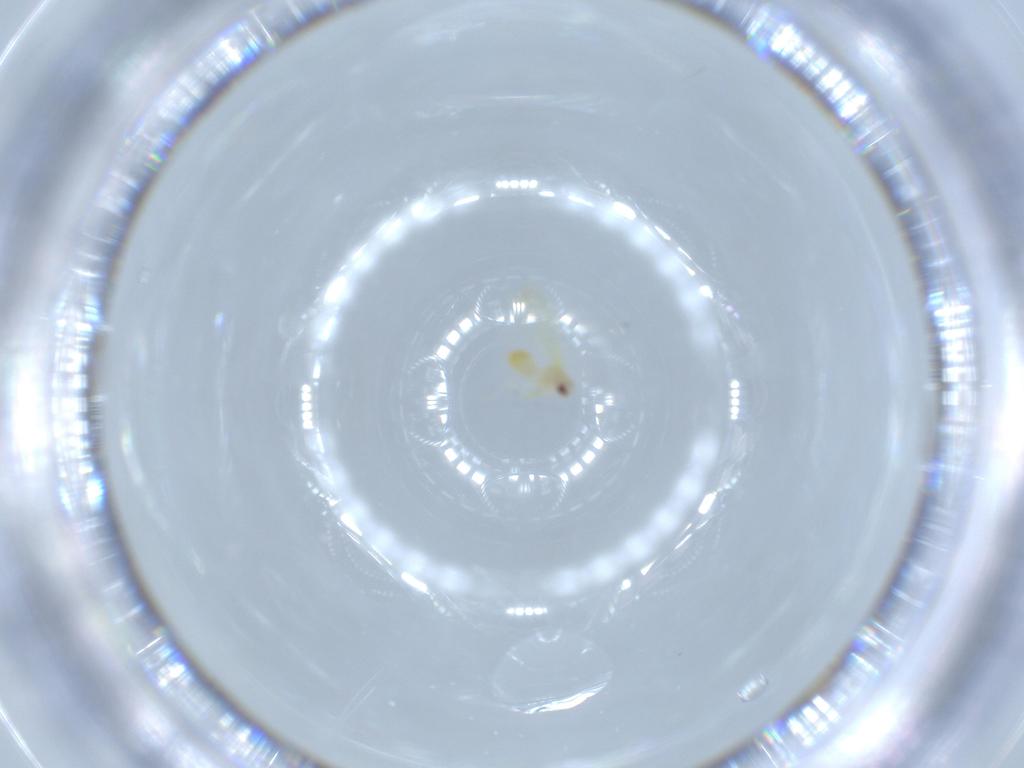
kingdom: Animalia
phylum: Arthropoda
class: Insecta
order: Hemiptera
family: Aleyrodidae
